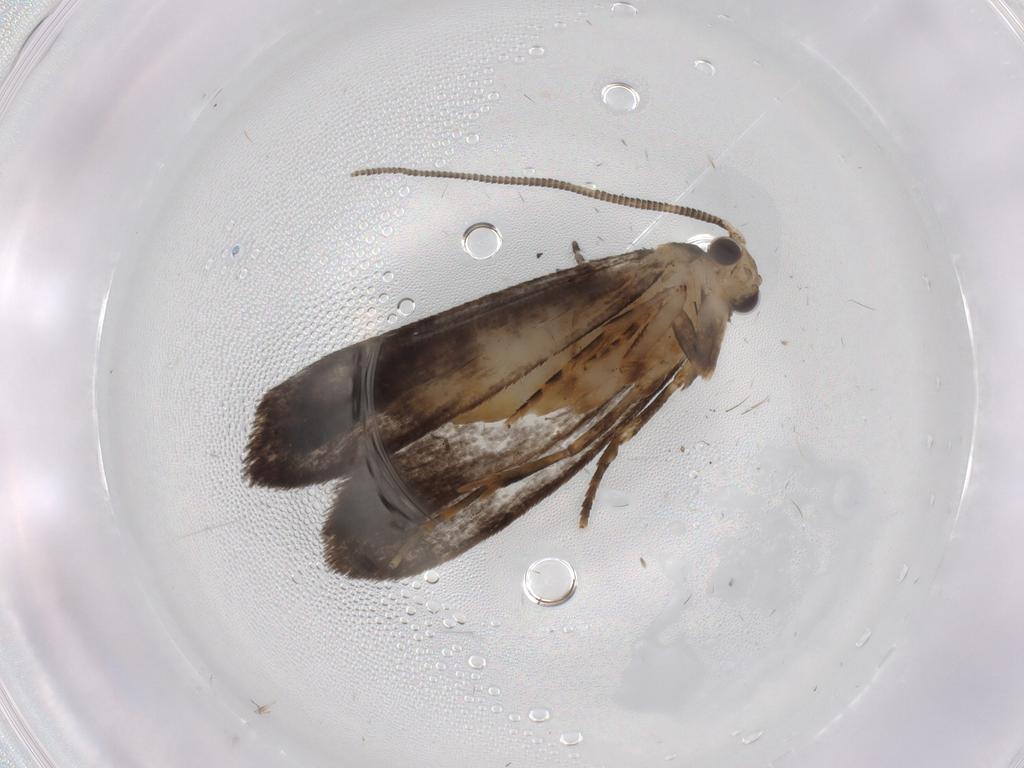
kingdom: Animalia
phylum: Arthropoda
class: Insecta
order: Lepidoptera
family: Tineidae
